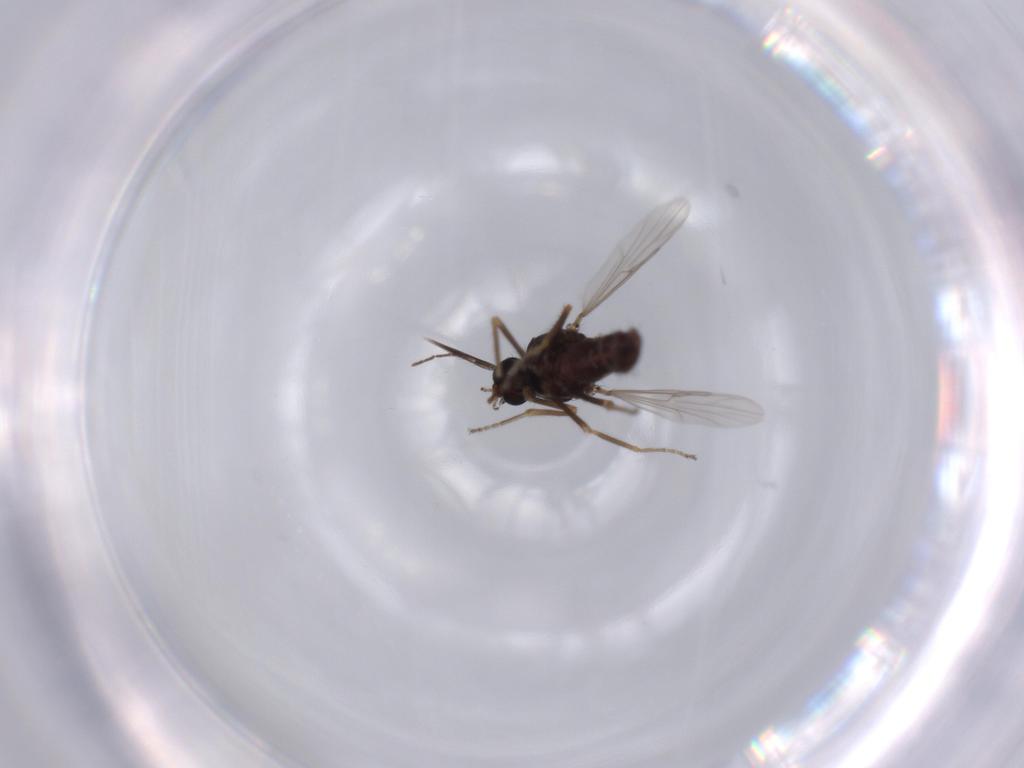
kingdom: Animalia
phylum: Arthropoda
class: Insecta
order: Diptera
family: Ceratopogonidae
